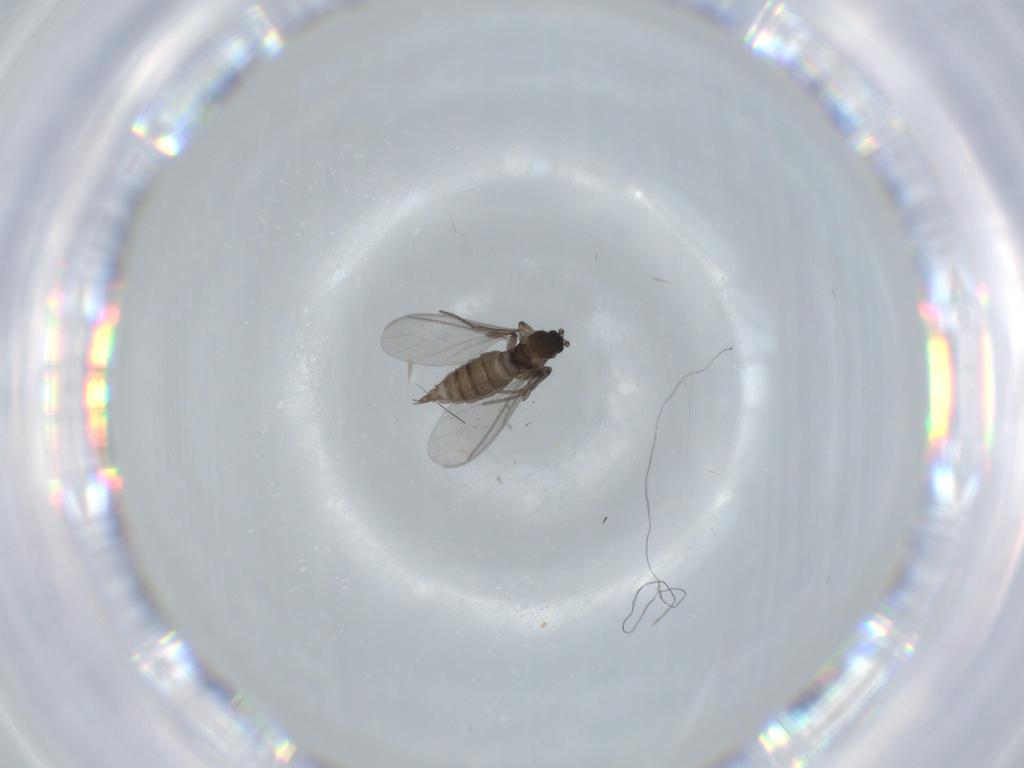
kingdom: Animalia
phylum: Arthropoda
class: Insecta
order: Diptera
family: Sciaridae
